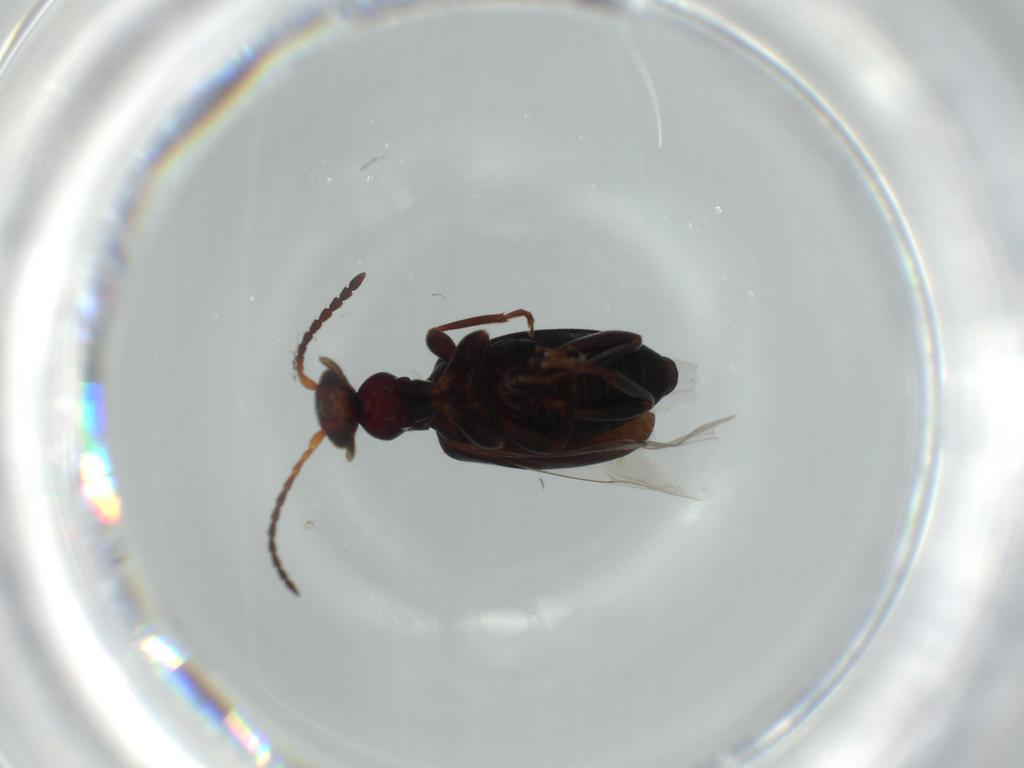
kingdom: Animalia
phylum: Arthropoda
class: Insecta
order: Coleoptera
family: Anthicidae
